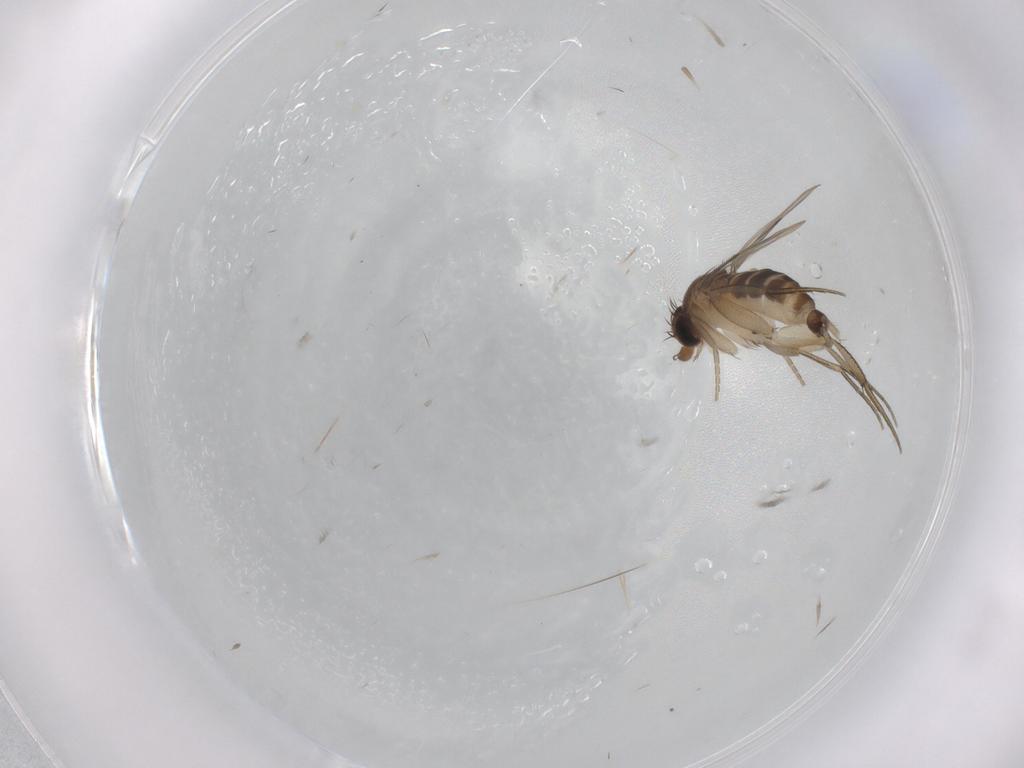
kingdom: Animalia
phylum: Arthropoda
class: Insecta
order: Diptera
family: Phoridae
